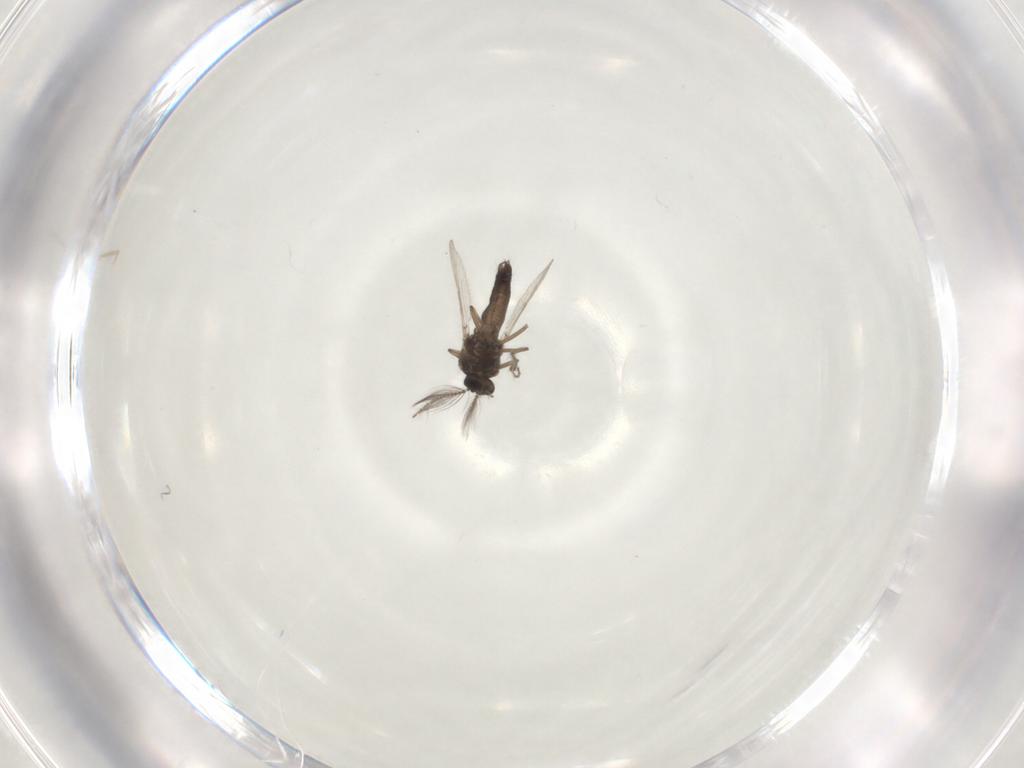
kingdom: Animalia
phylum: Arthropoda
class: Insecta
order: Diptera
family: Ceratopogonidae
